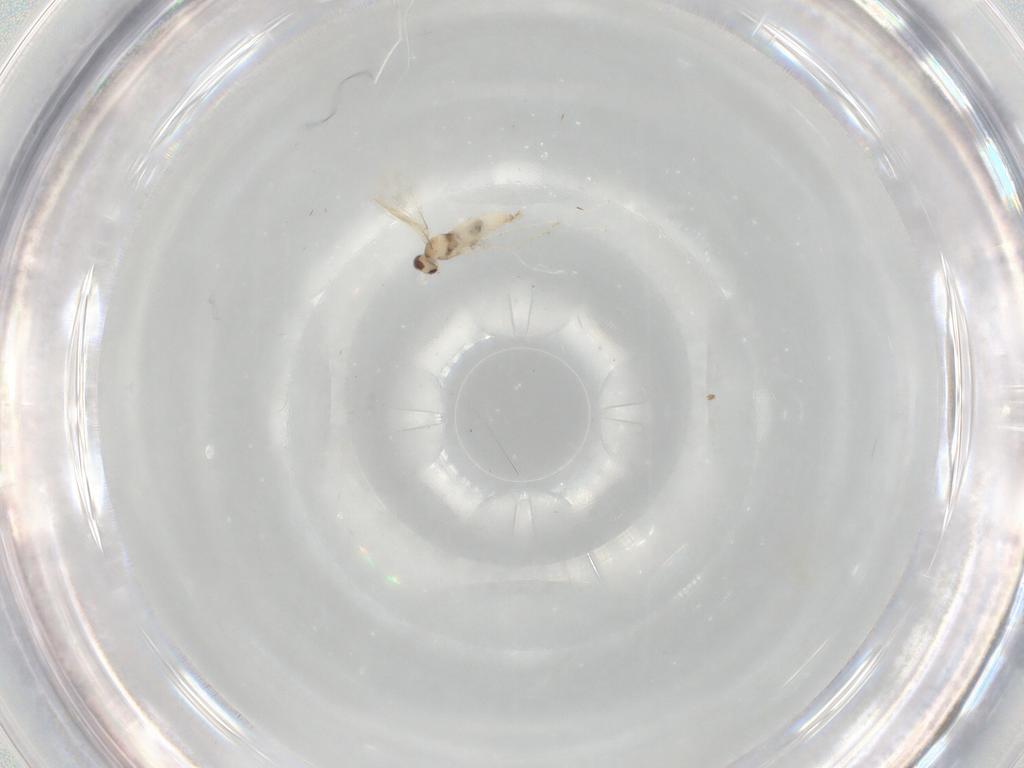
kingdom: Animalia
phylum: Arthropoda
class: Insecta
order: Diptera
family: Cecidomyiidae
